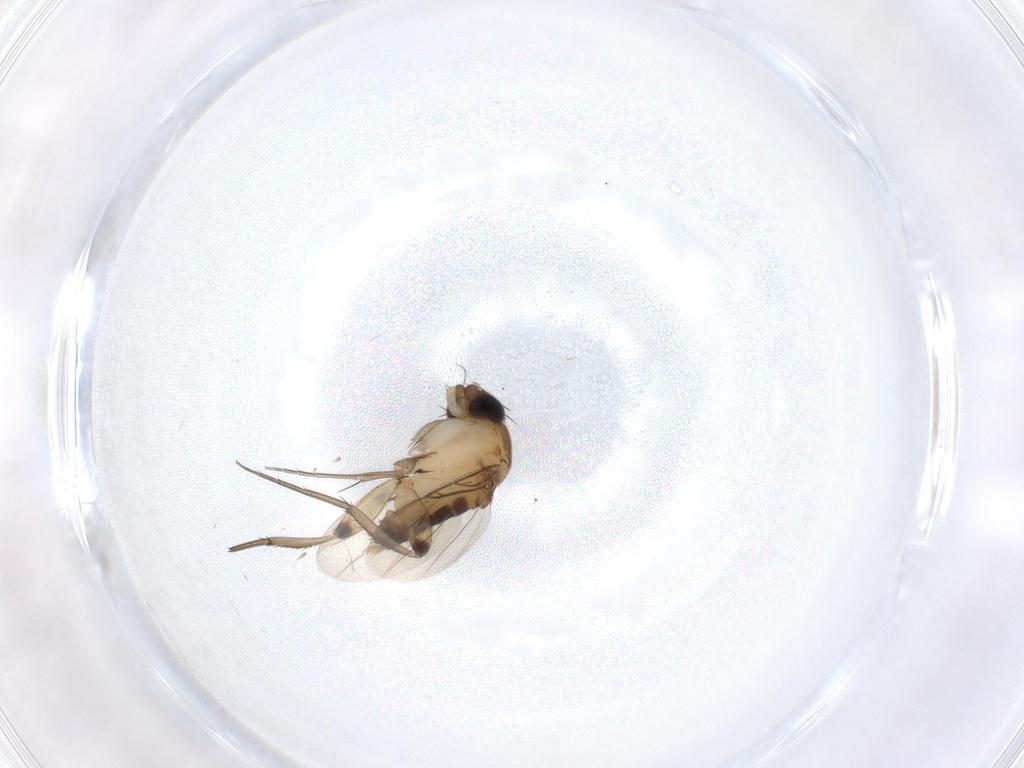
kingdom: Animalia
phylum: Arthropoda
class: Insecta
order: Diptera
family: Phoridae
